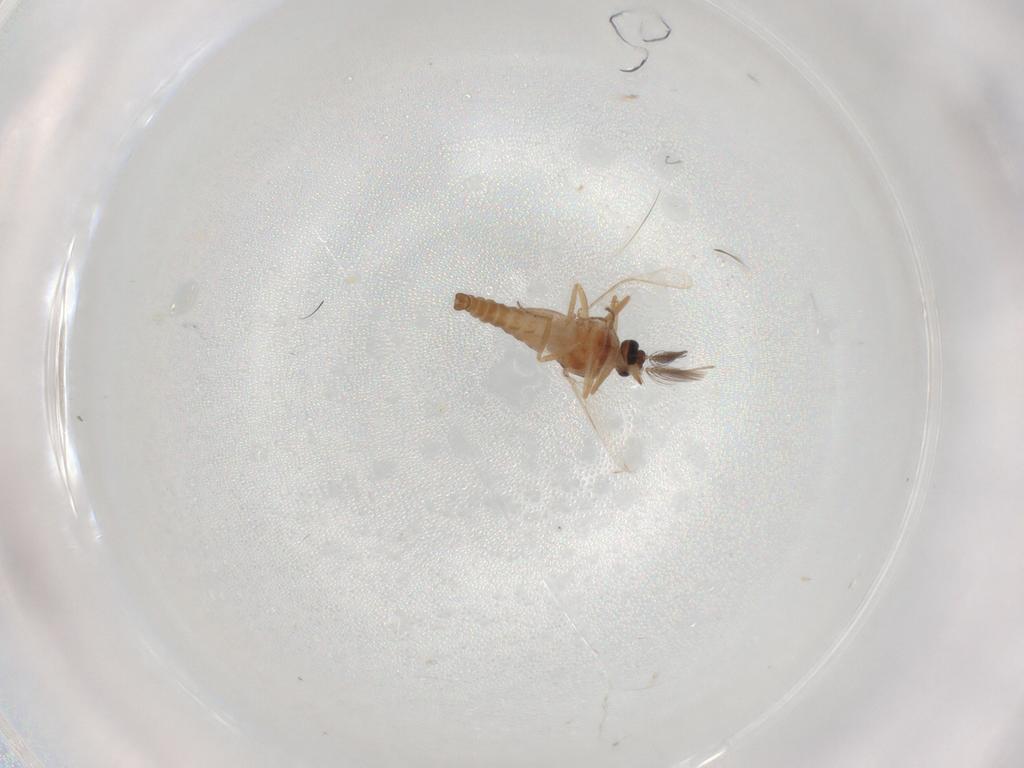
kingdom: Animalia
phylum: Arthropoda
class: Insecta
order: Diptera
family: Ceratopogonidae
